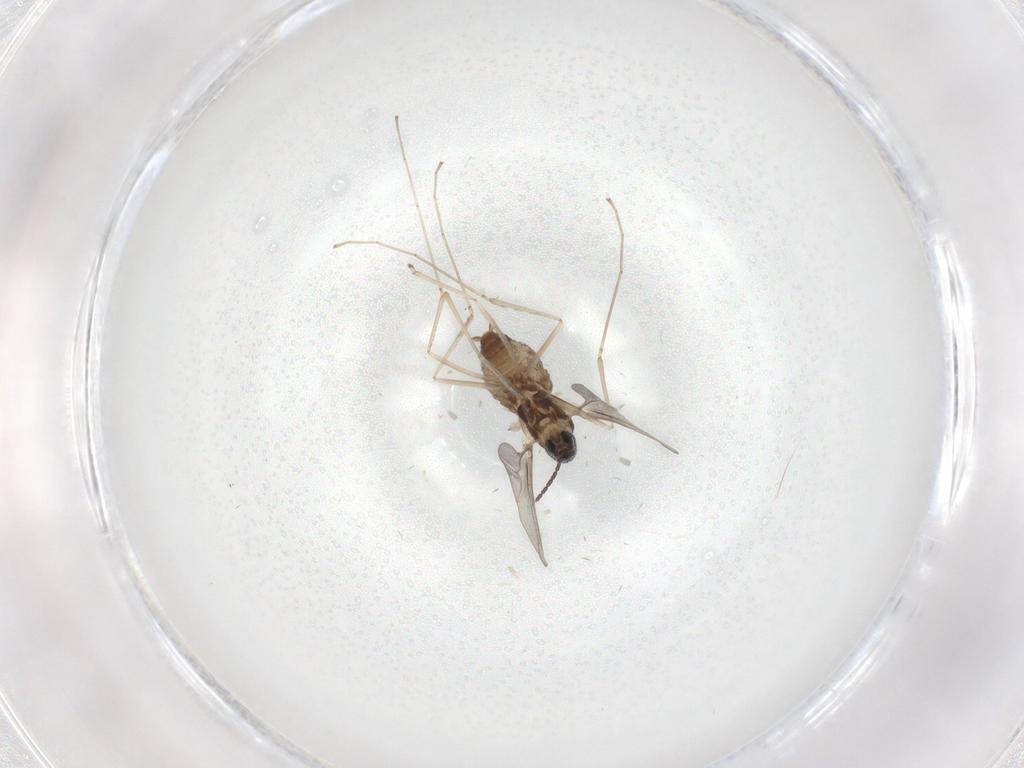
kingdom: Animalia
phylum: Arthropoda
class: Insecta
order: Diptera
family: Cecidomyiidae
